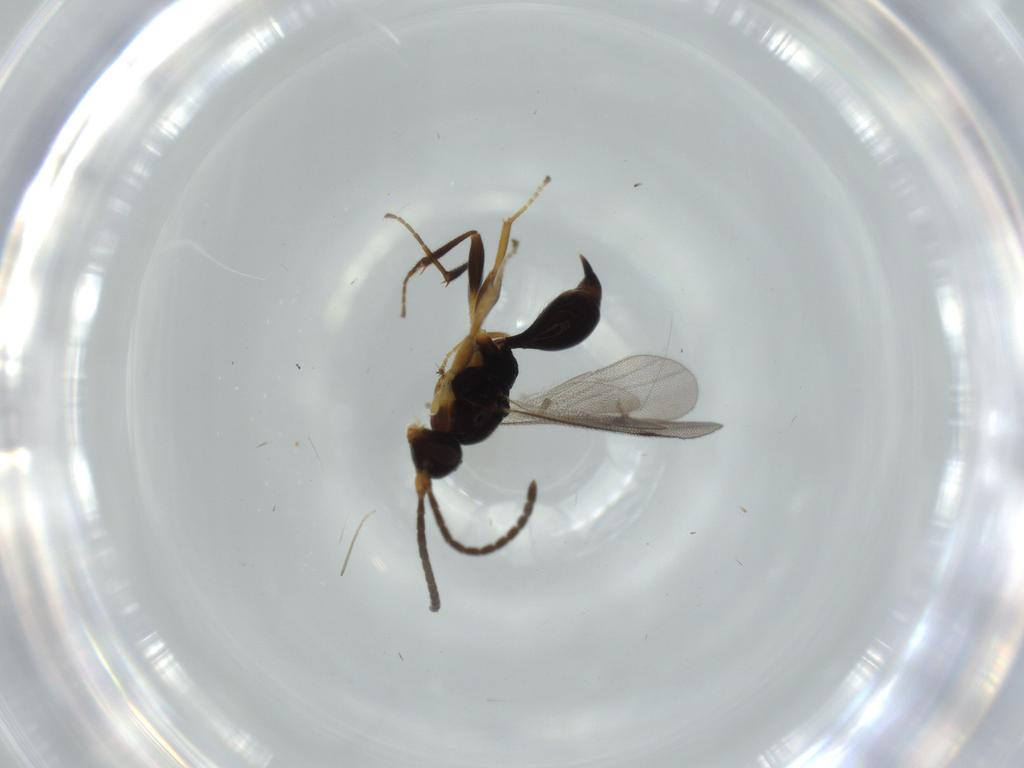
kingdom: Animalia
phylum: Arthropoda
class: Insecta
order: Hymenoptera
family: Proctotrupidae
